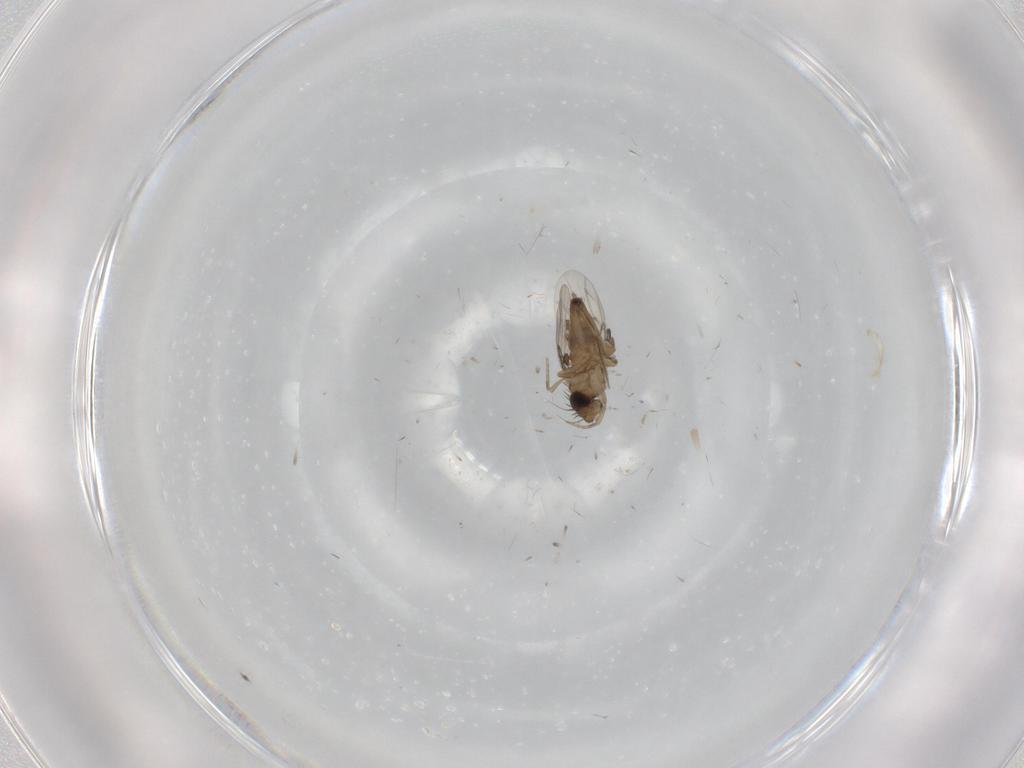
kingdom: Animalia
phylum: Arthropoda
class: Insecta
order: Diptera
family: Phoridae
